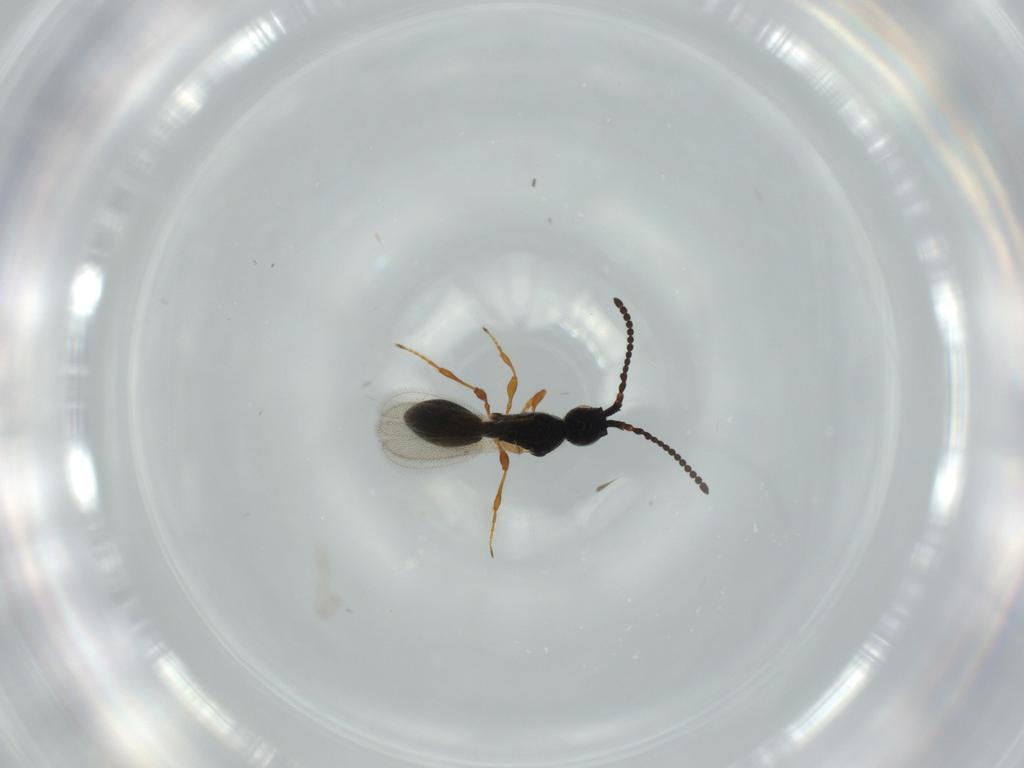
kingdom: Animalia
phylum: Arthropoda
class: Insecta
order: Hymenoptera
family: Diapriidae
